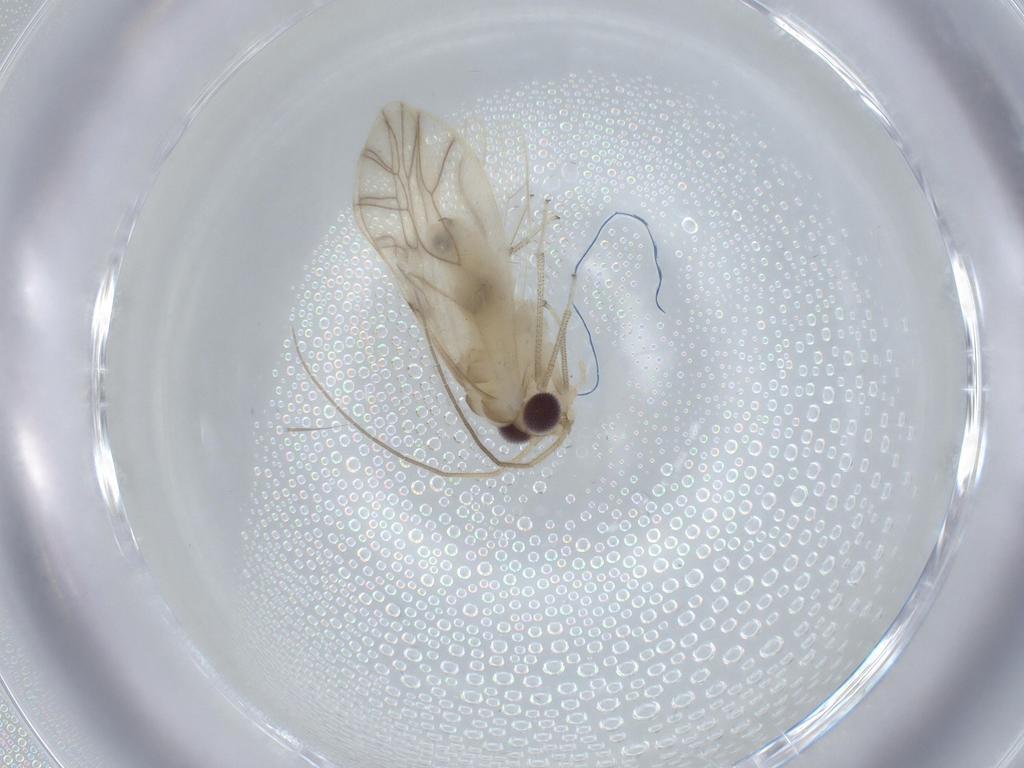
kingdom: Animalia
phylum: Arthropoda
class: Insecta
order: Psocodea
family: Caeciliusidae
